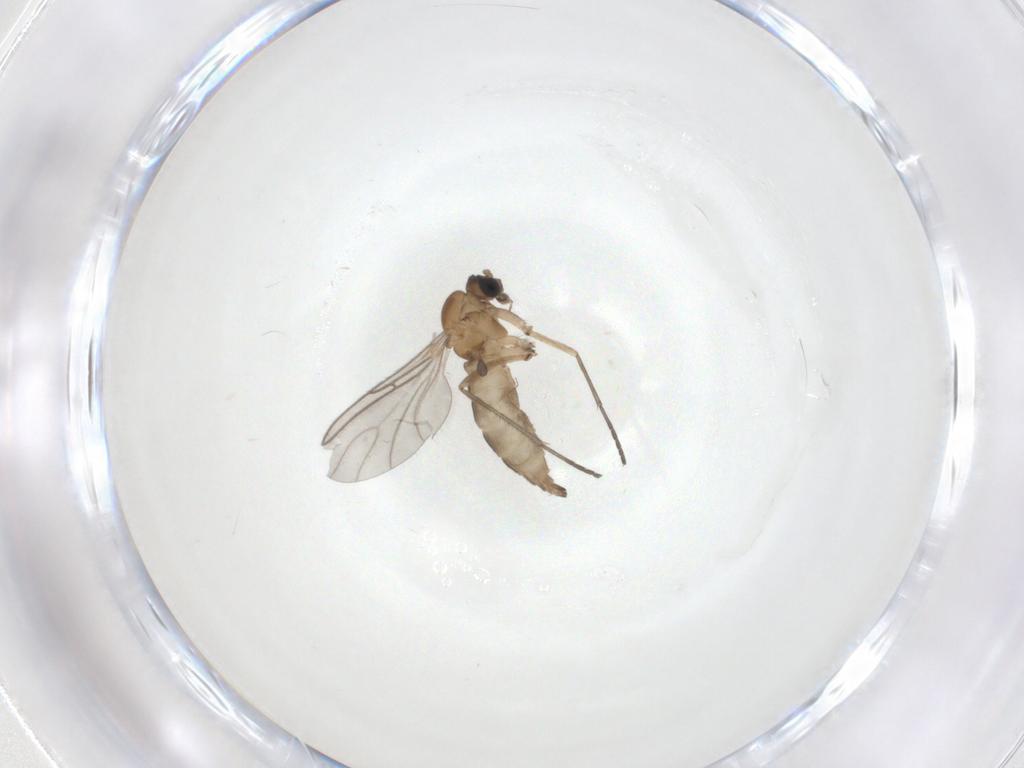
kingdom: Animalia
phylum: Arthropoda
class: Insecta
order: Diptera
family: Sciaridae
